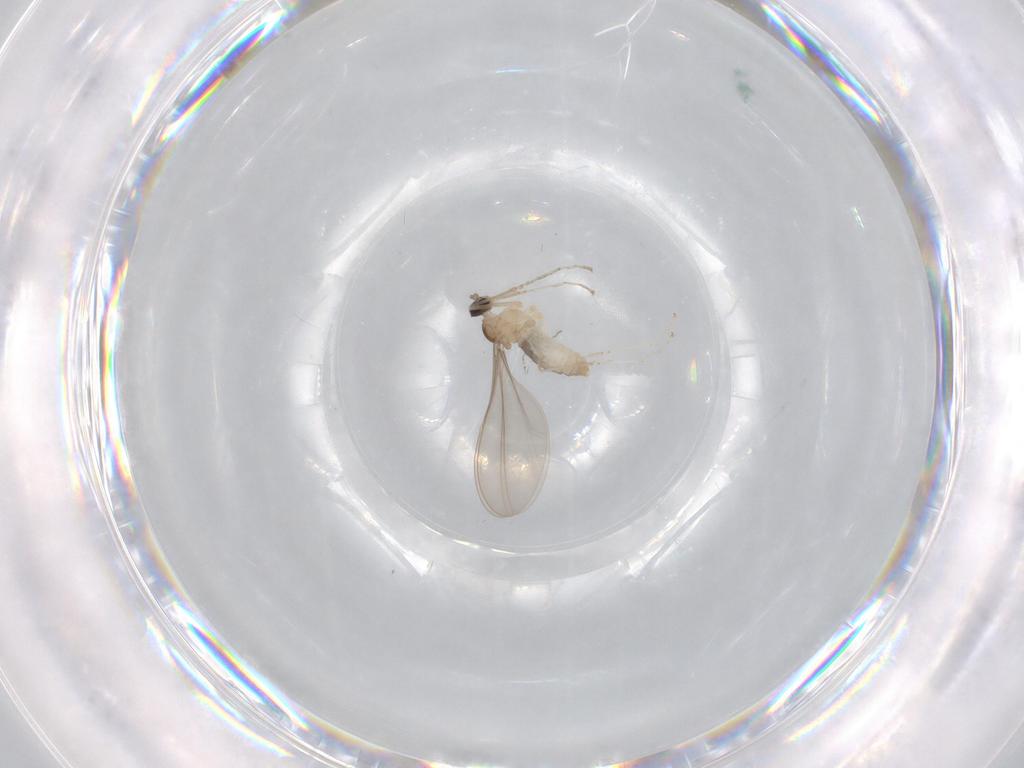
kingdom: Animalia
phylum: Arthropoda
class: Insecta
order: Diptera
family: Cecidomyiidae
